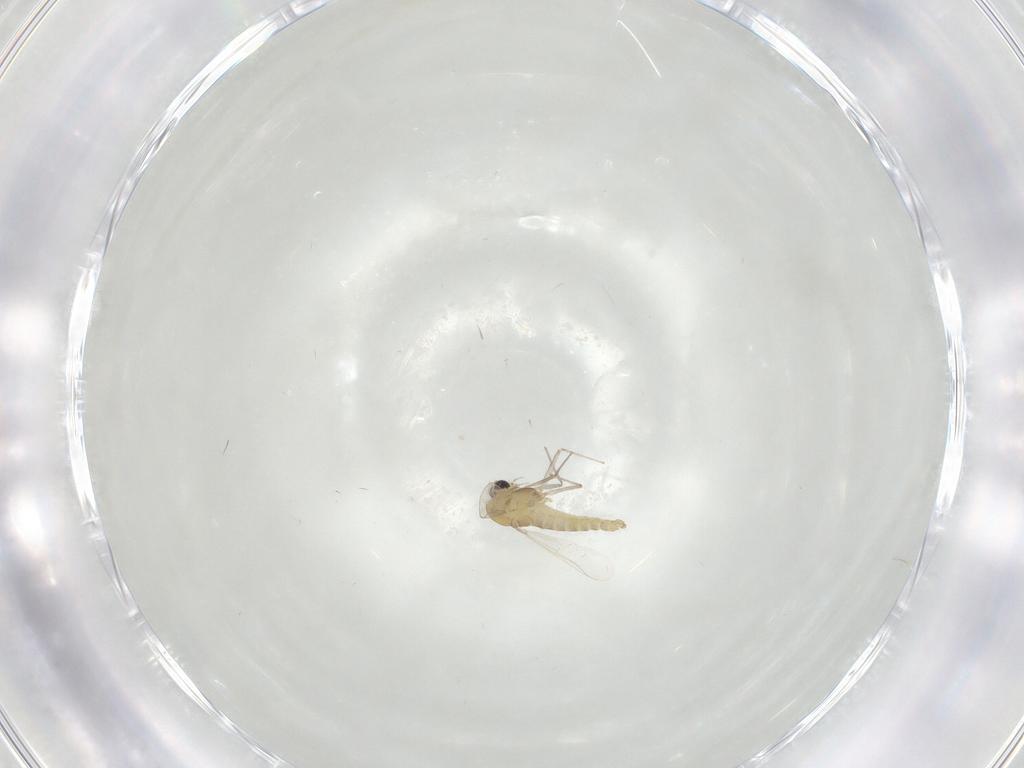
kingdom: Animalia
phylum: Arthropoda
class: Insecta
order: Diptera
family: Chironomidae
